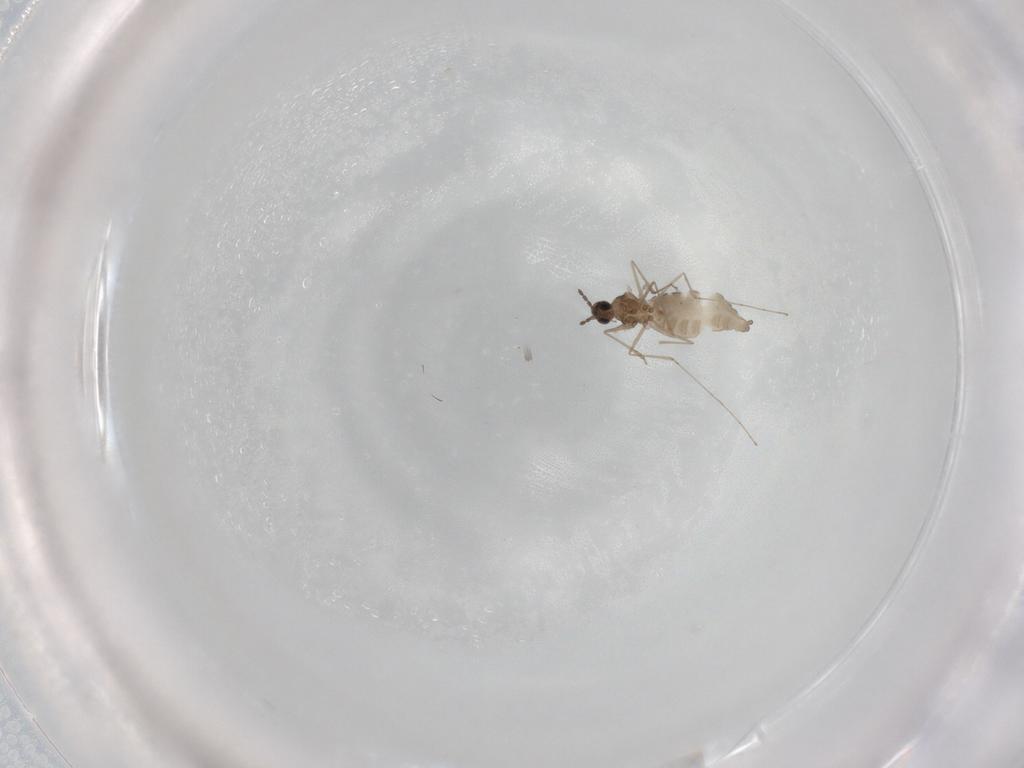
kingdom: Animalia
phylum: Arthropoda
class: Insecta
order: Diptera
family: Cecidomyiidae
